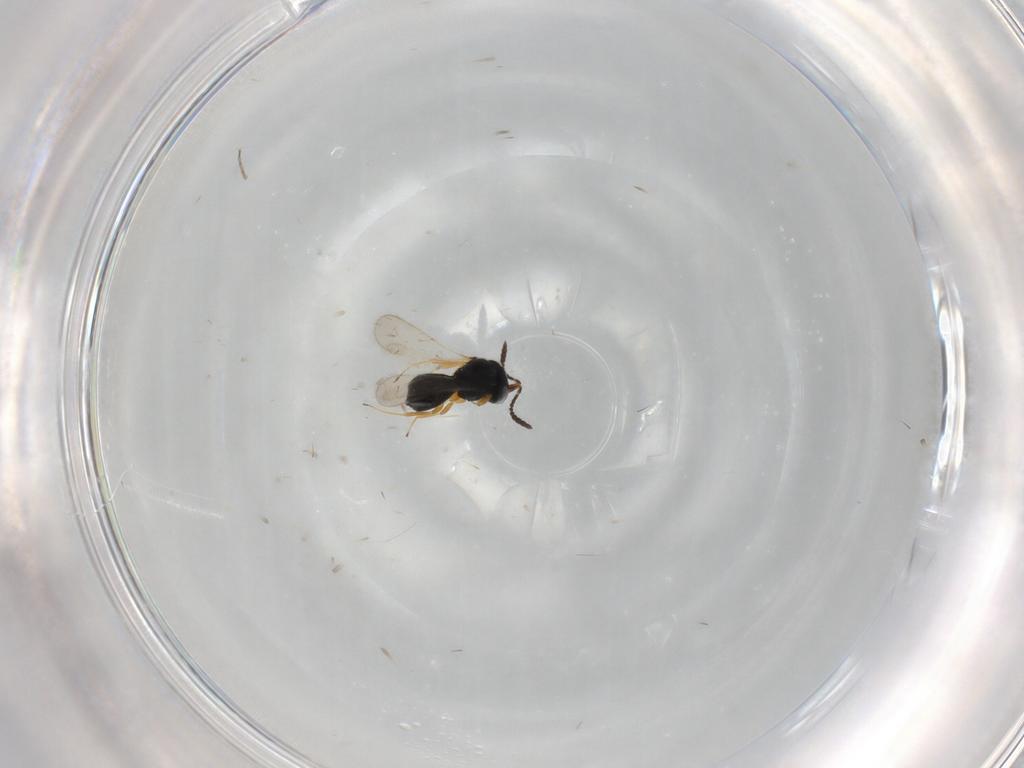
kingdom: Animalia
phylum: Arthropoda
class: Insecta
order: Hymenoptera
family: Scelionidae
